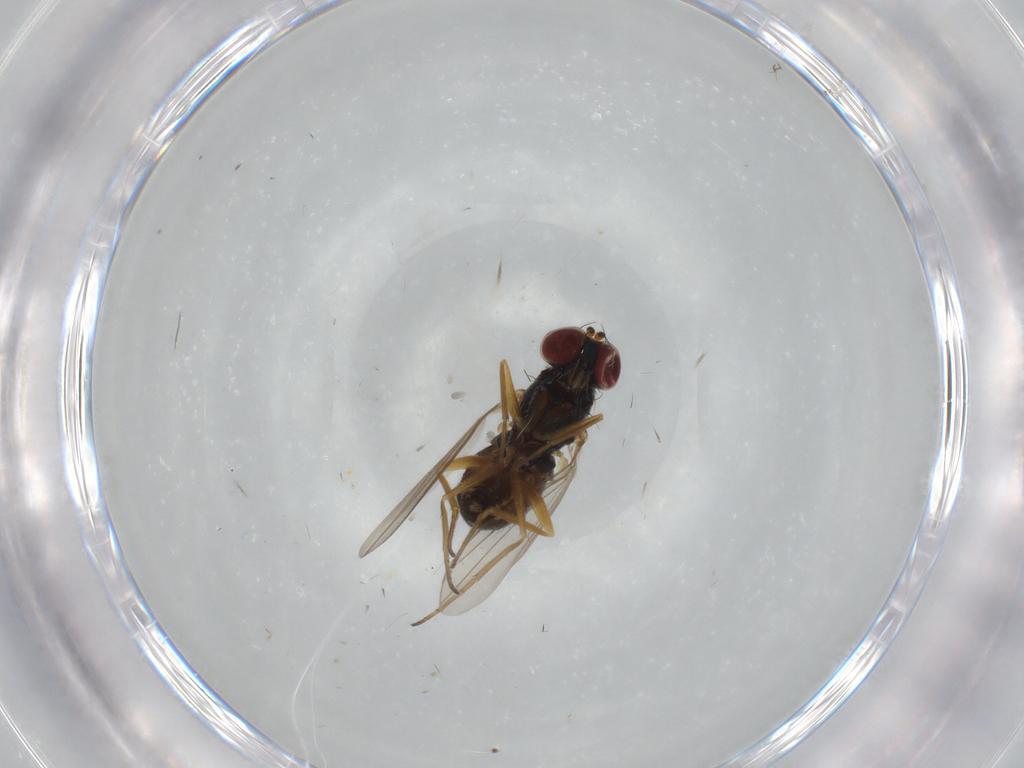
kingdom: Animalia
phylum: Arthropoda
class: Insecta
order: Diptera
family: Dolichopodidae
